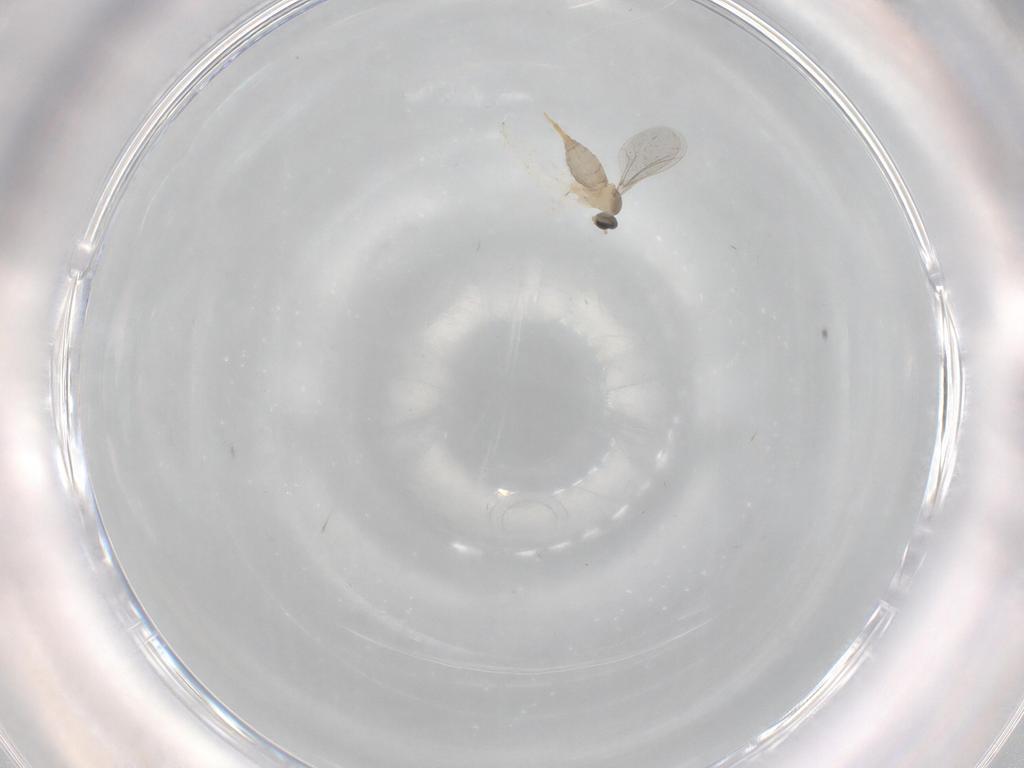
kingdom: Animalia
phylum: Arthropoda
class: Insecta
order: Diptera
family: Cecidomyiidae
